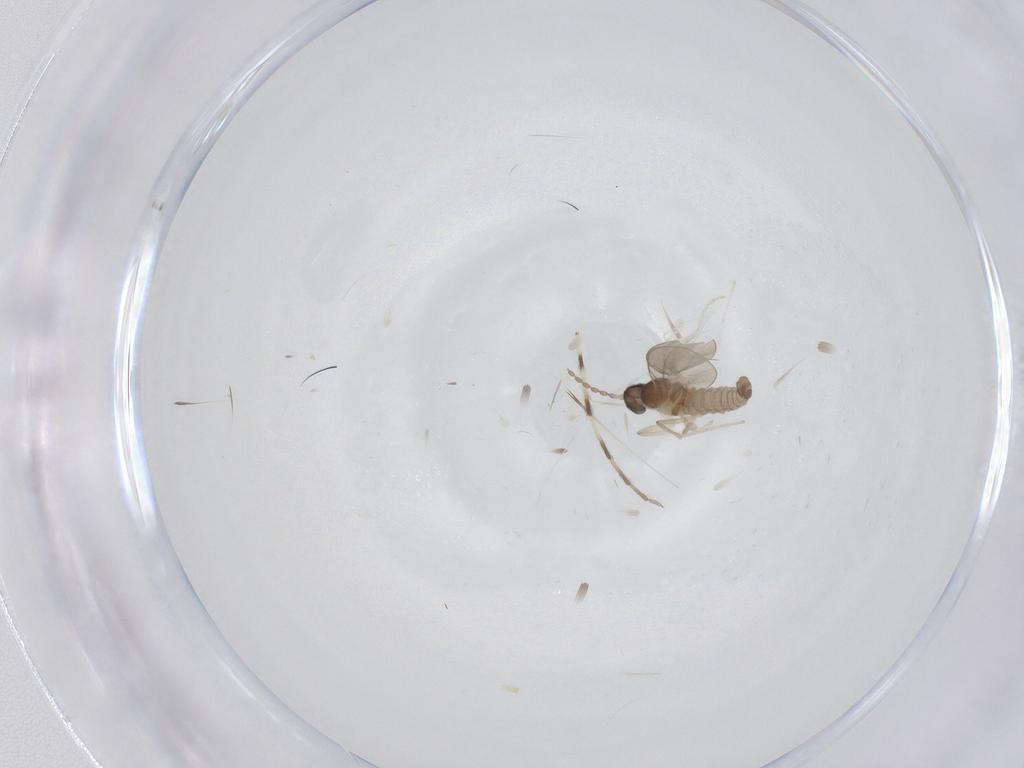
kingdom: Animalia
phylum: Arthropoda
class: Insecta
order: Diptera
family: Cecidomyiidae
